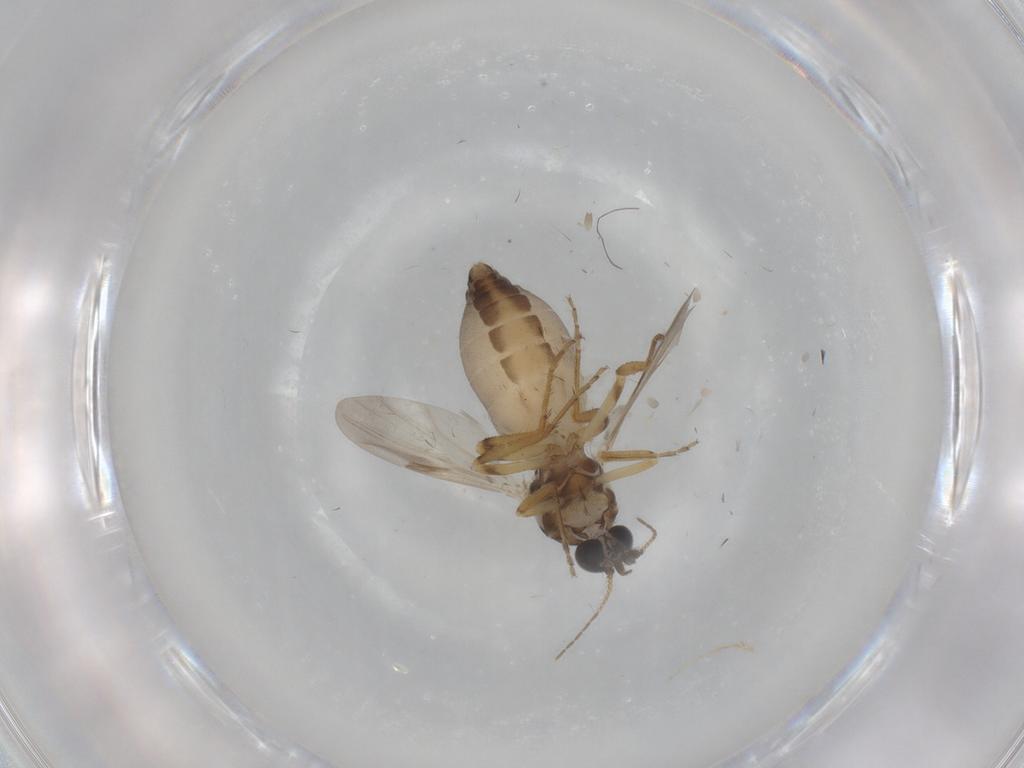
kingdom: Animalia
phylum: Arthropoda
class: Insecta
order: Diptera
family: Ceratopogonidae
